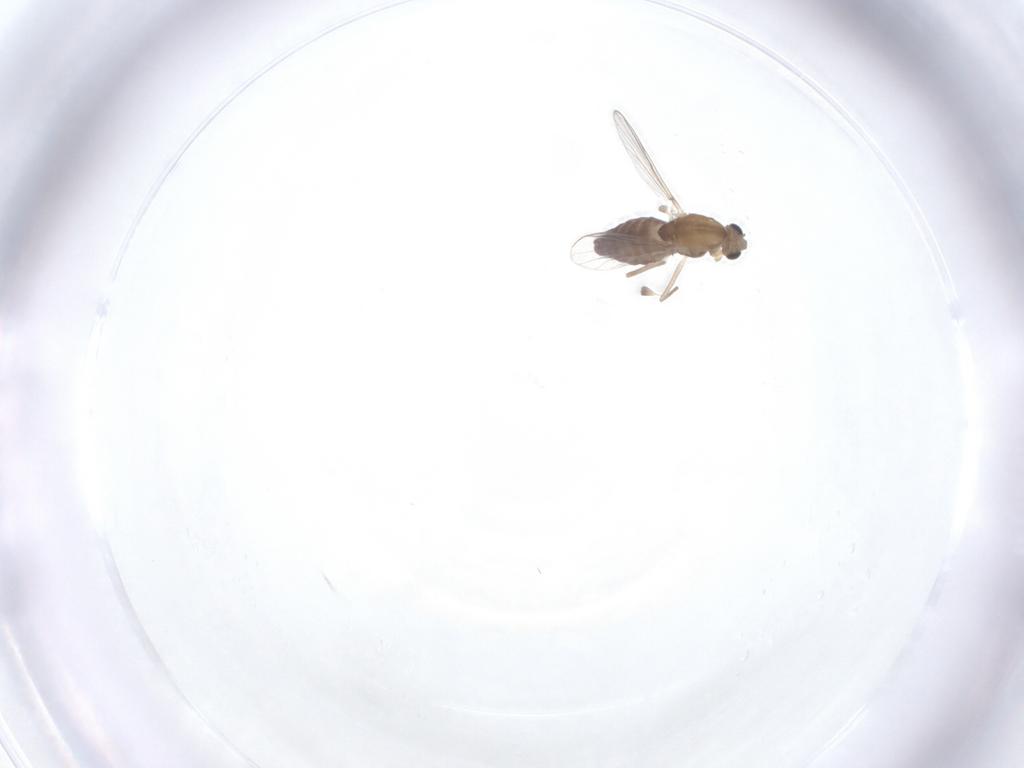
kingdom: Animalia
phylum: Arthropoda
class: Insecta
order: Diptera
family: Chironomidae
